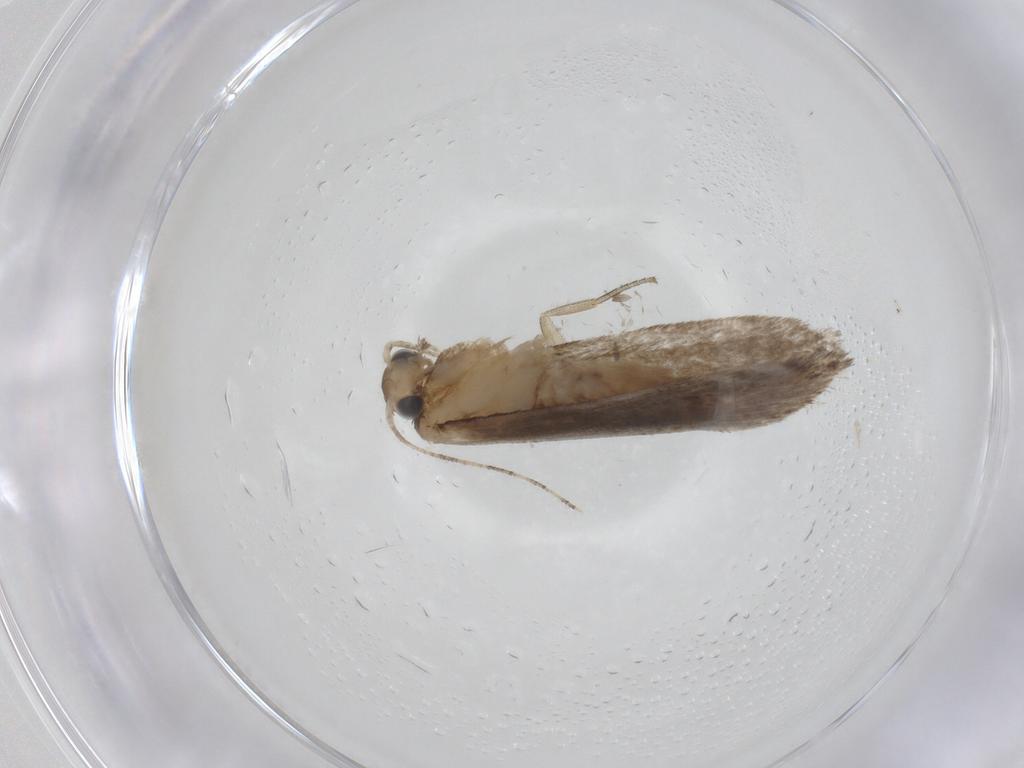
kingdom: Animalia
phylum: Arthropoda
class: Insecta
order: Lepidoptera
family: Tineidae
